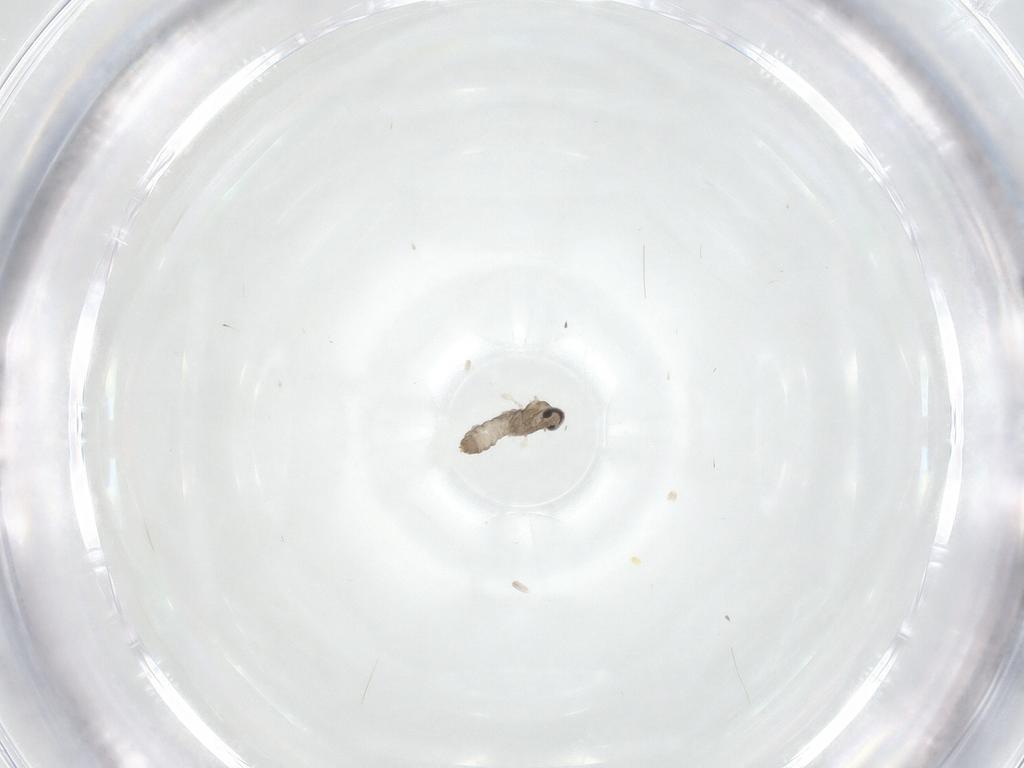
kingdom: Animalia
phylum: Arthropoda
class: Insecta
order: Diptera
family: Cecidomyiidae
